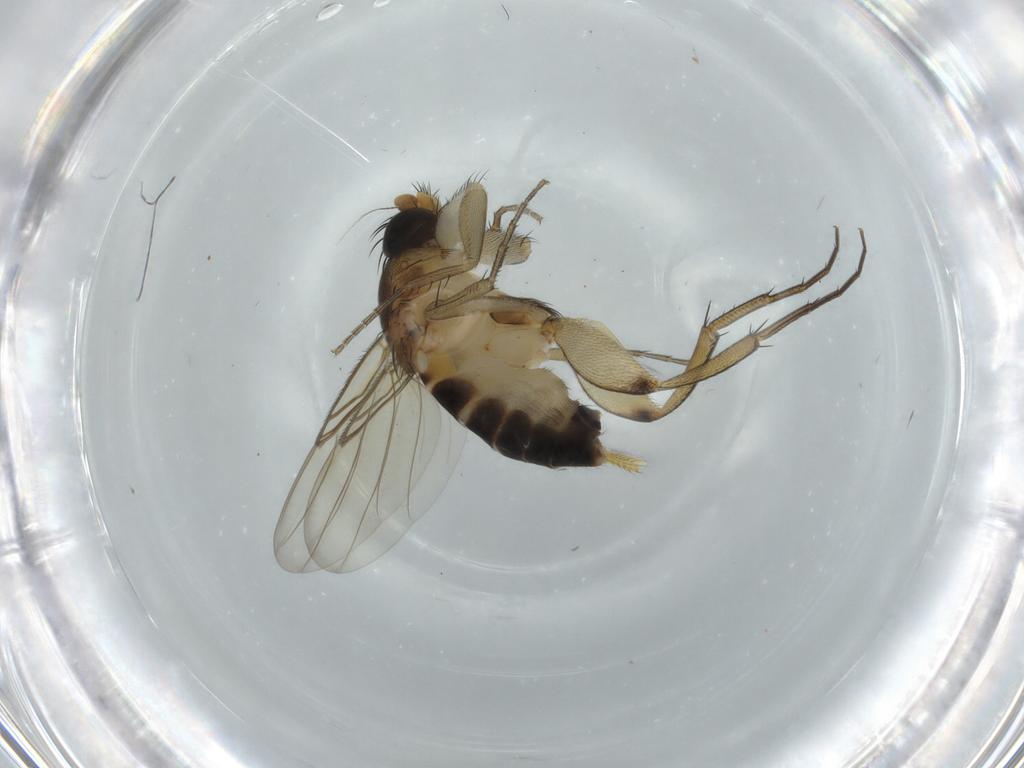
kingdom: Animalia
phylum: Arthropoda
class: Insecta
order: Diptera
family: Phoridae
